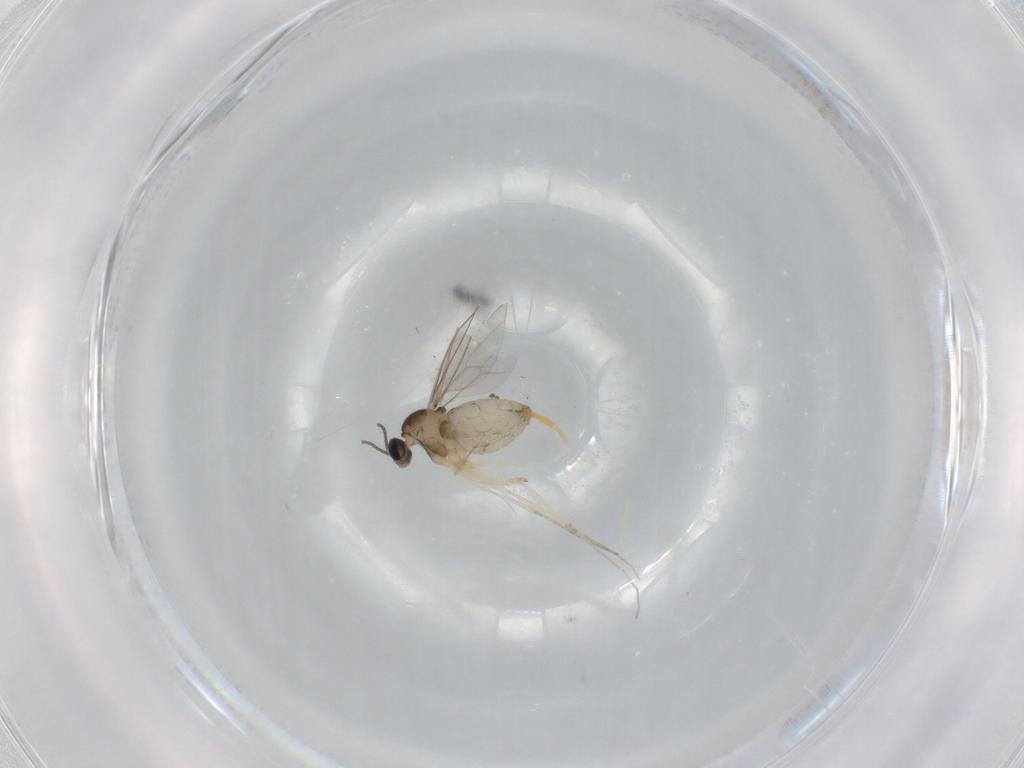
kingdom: Animalia
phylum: Arthropoda
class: Insecta
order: Diptera
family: Cecidomyiidae
